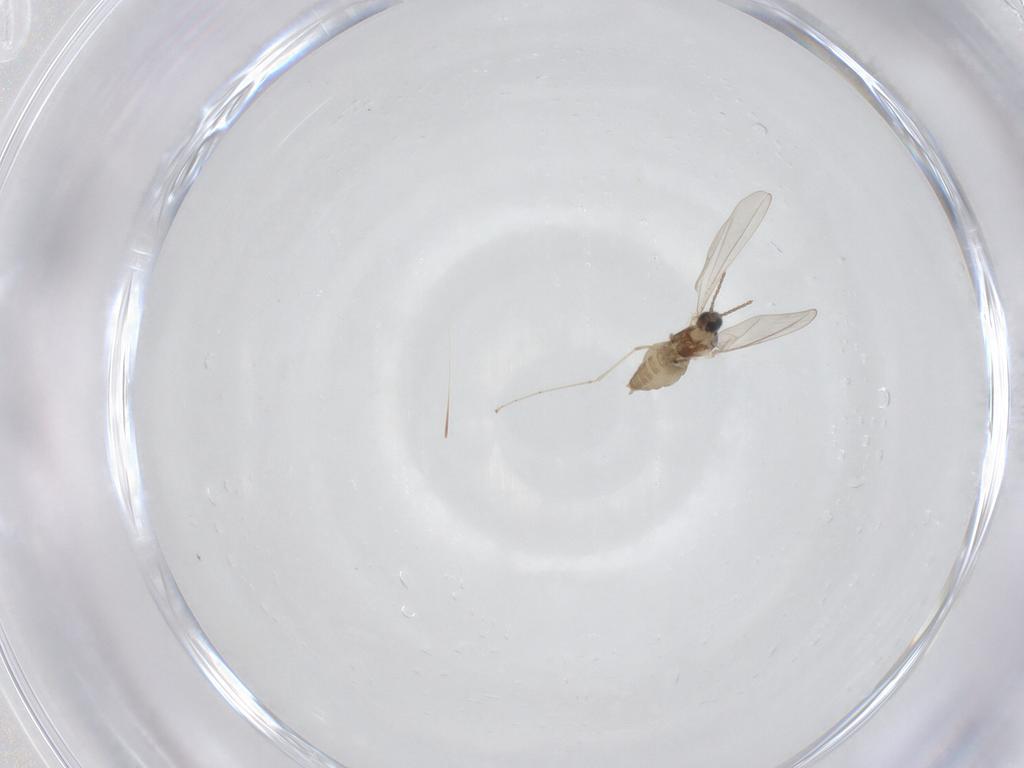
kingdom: Animalia
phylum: Arthropoda
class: Insecta
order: Diptera
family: Cecidomyiidae
